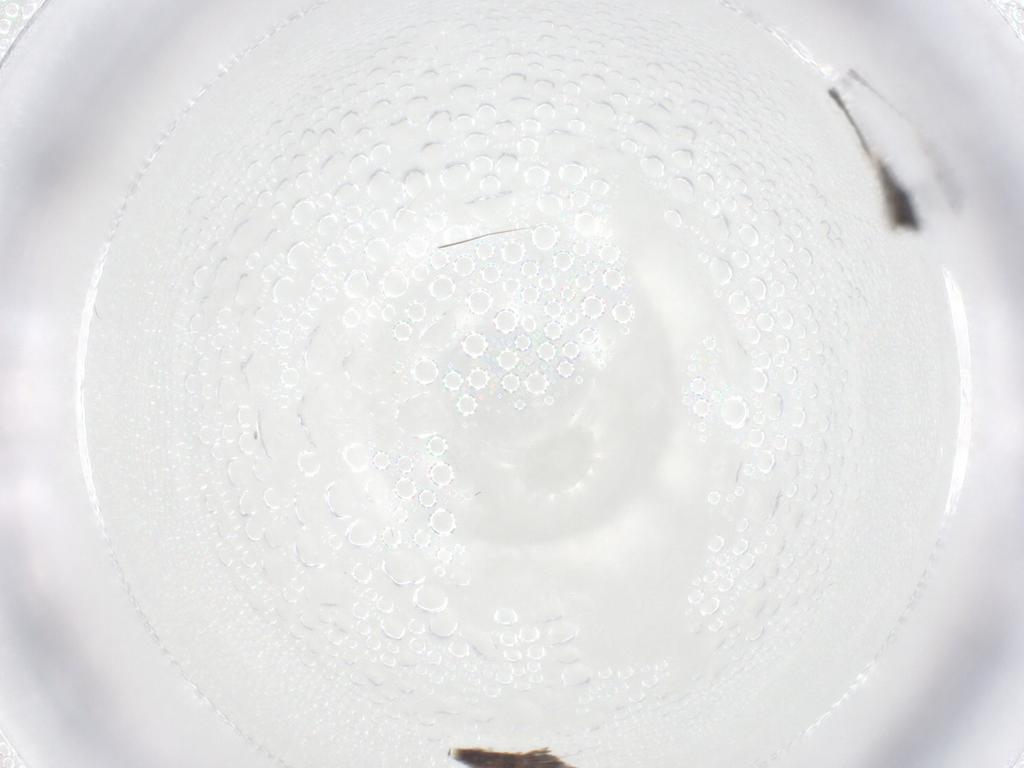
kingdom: Animalia
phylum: Arthropoda
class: Insecta
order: Diptera
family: Chironomidae
